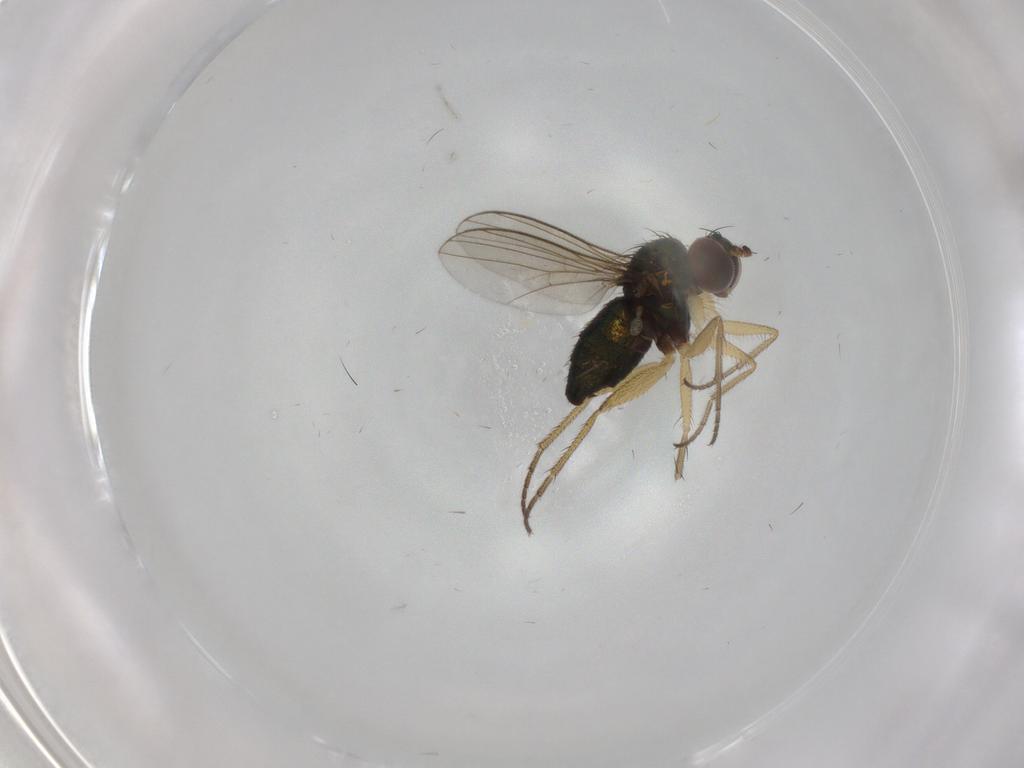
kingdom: Animalia
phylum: Arthropoda
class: Insecta
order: Diptera
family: Dolichopodidae
